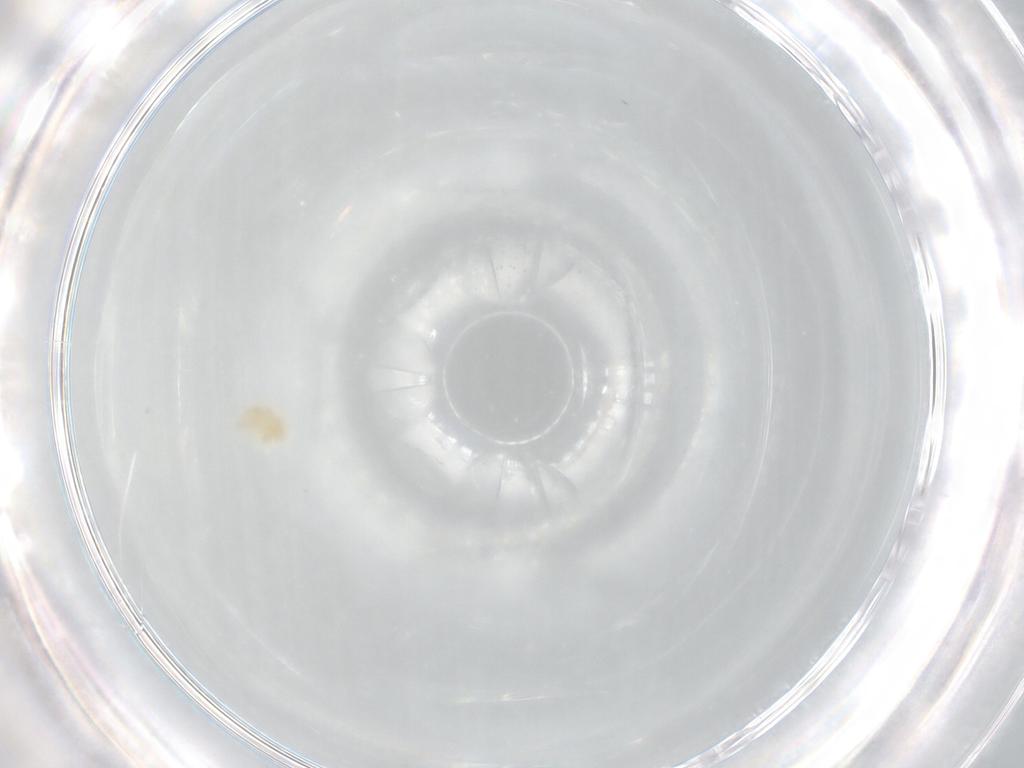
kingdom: Animalia
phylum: Arthropoda
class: Arachnida
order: Trombidiformes
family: Eupodidae
